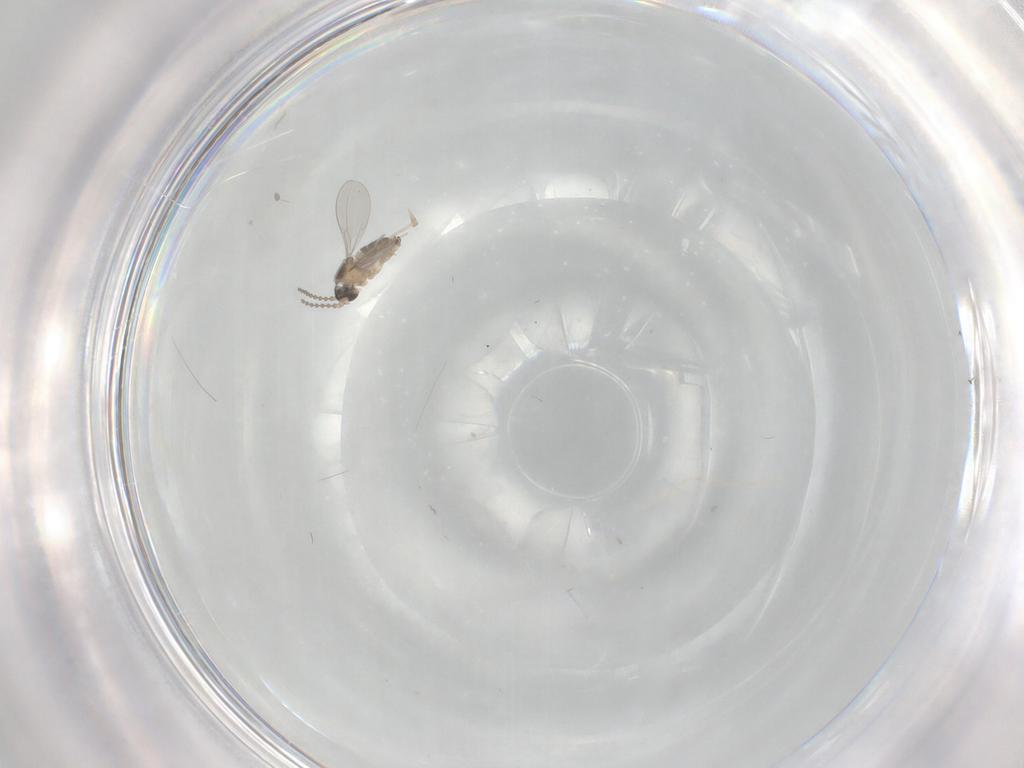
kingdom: Animalia
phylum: Arthropoda
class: Insecta
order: Diptera
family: Cecidomyiidae
